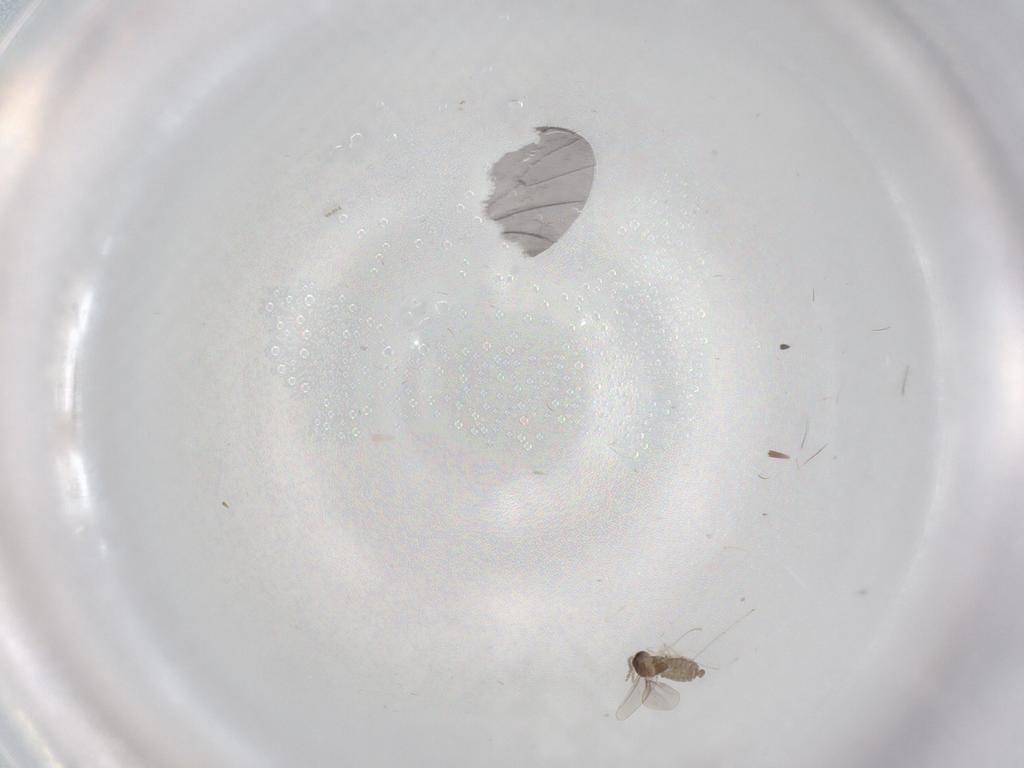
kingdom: Animalia
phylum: Arthropoda
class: Insecta
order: Diptera
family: Cecidomyiidae
